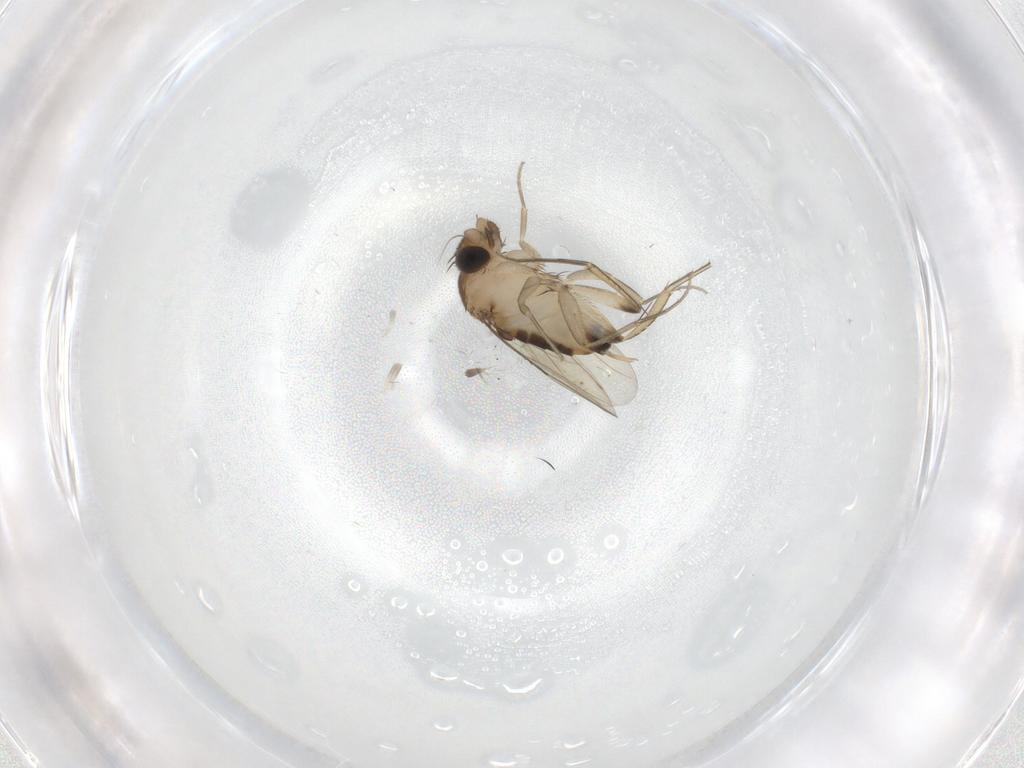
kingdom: Animalia
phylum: Arthropoda
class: Insecta
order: Diptera
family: Phoridae
